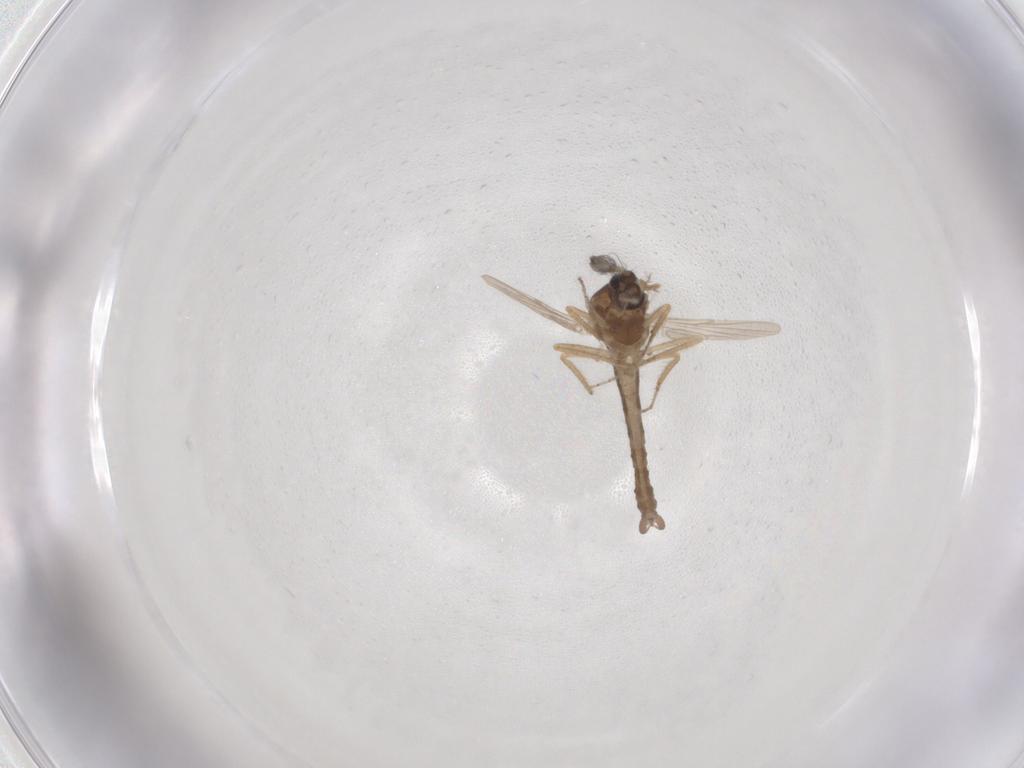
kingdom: Animalia
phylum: Arthropoda
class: Insecta
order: Diptera
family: Ceratopogonidae
